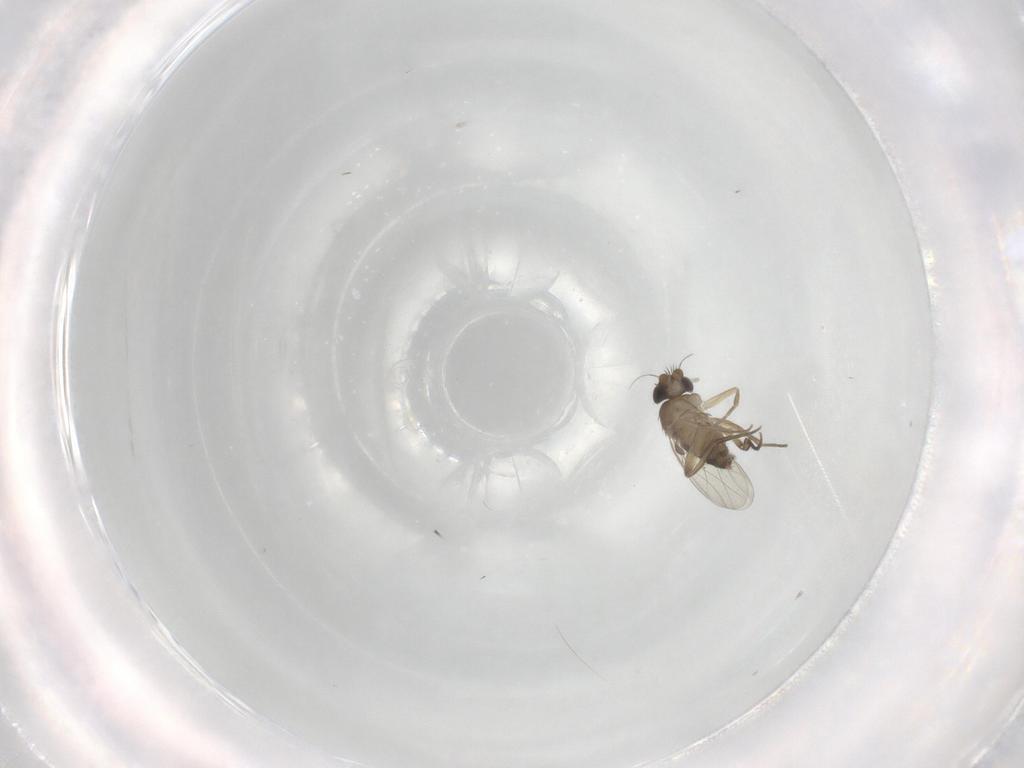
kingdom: Animalia
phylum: Arthropoda
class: Insecta
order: Diptera
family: Phoridae
